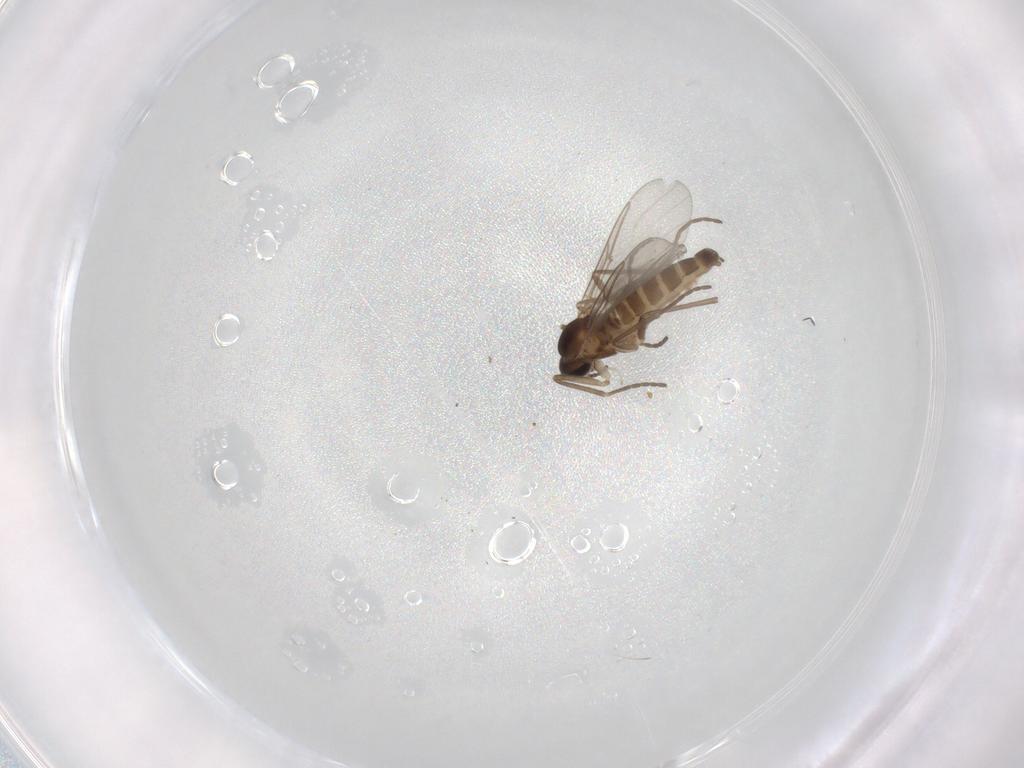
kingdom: Animalia
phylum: Arthropoda
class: Insecta
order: Diptera
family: Cecidomyiidae
